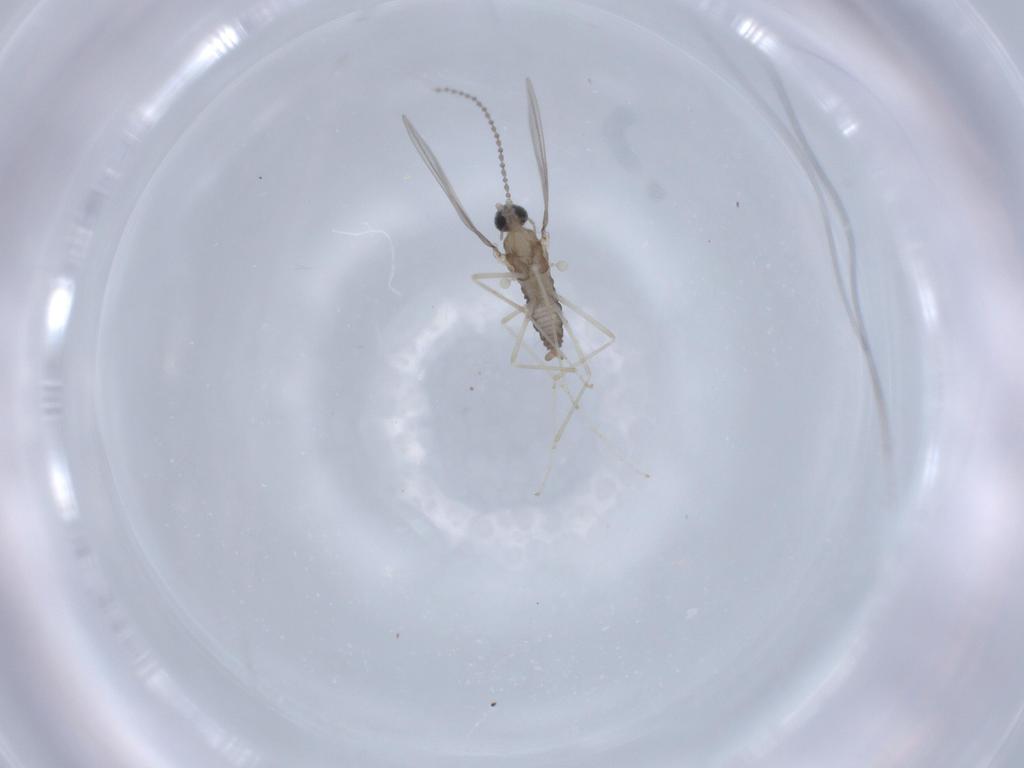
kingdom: Animalia
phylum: Arthropoda
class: Insecta
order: Diptera
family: Cecidomyiidae
